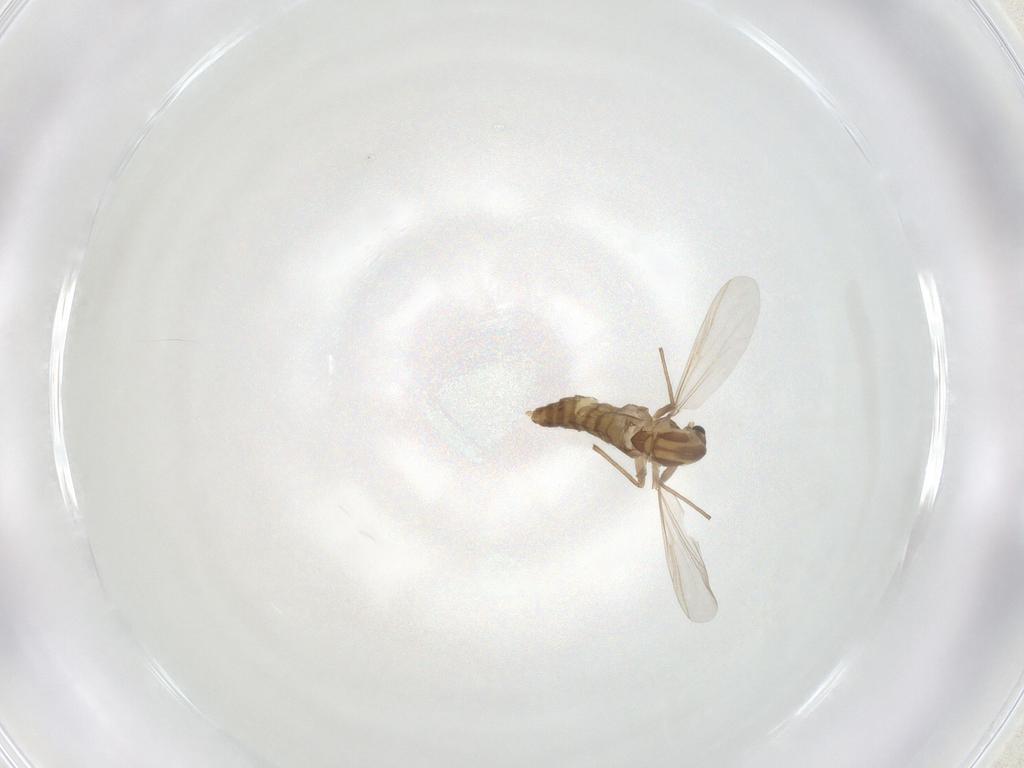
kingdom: Animalia
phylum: Arthropoda
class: Insecta
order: Diptera
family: Chironomidae
